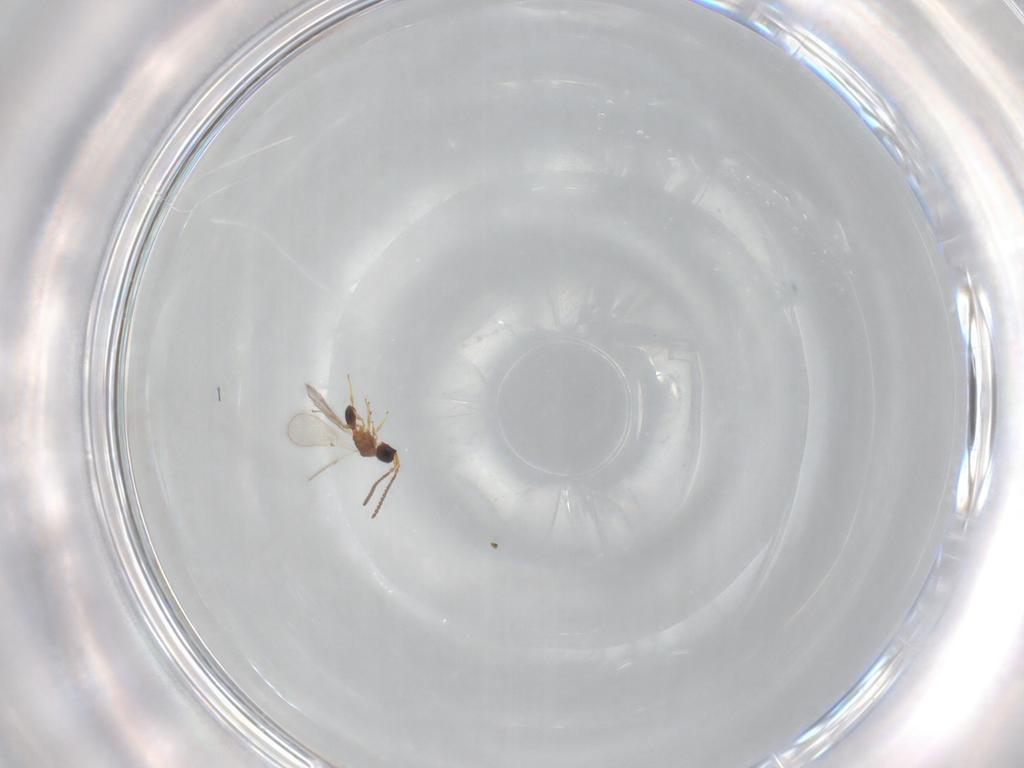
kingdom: Animalia
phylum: Arthropoda
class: Insecta
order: Hymenoptera
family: Diapriidae
